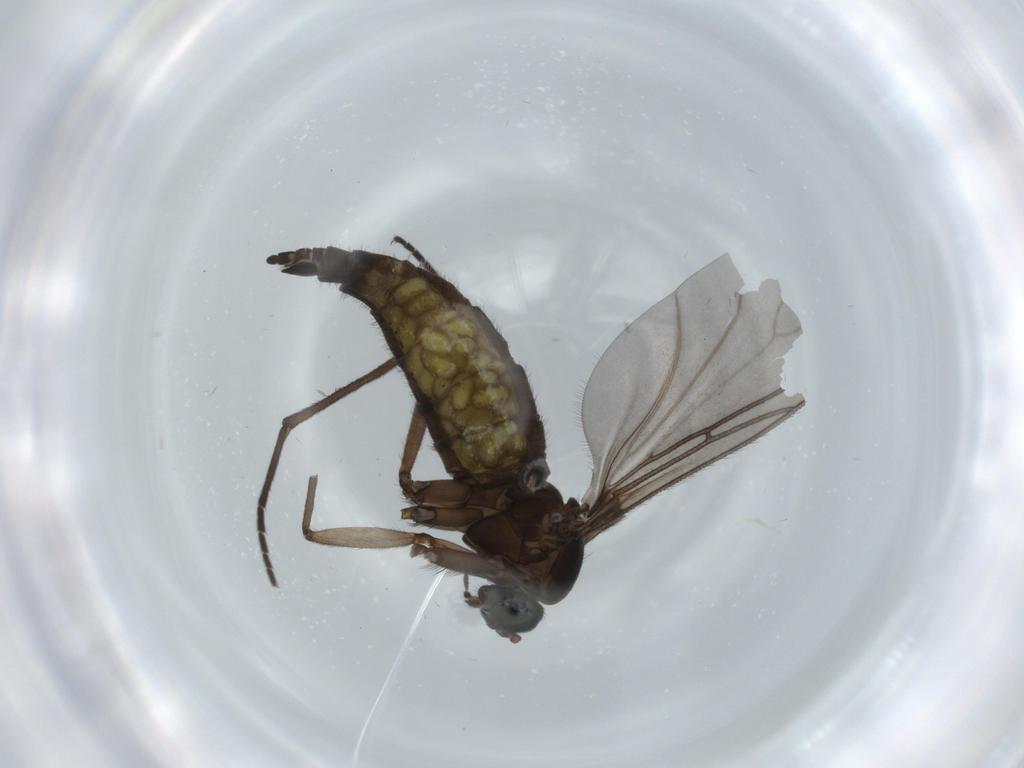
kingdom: Animalia
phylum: Arthropoda
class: Insecta
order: Diptera
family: Sciaridae
